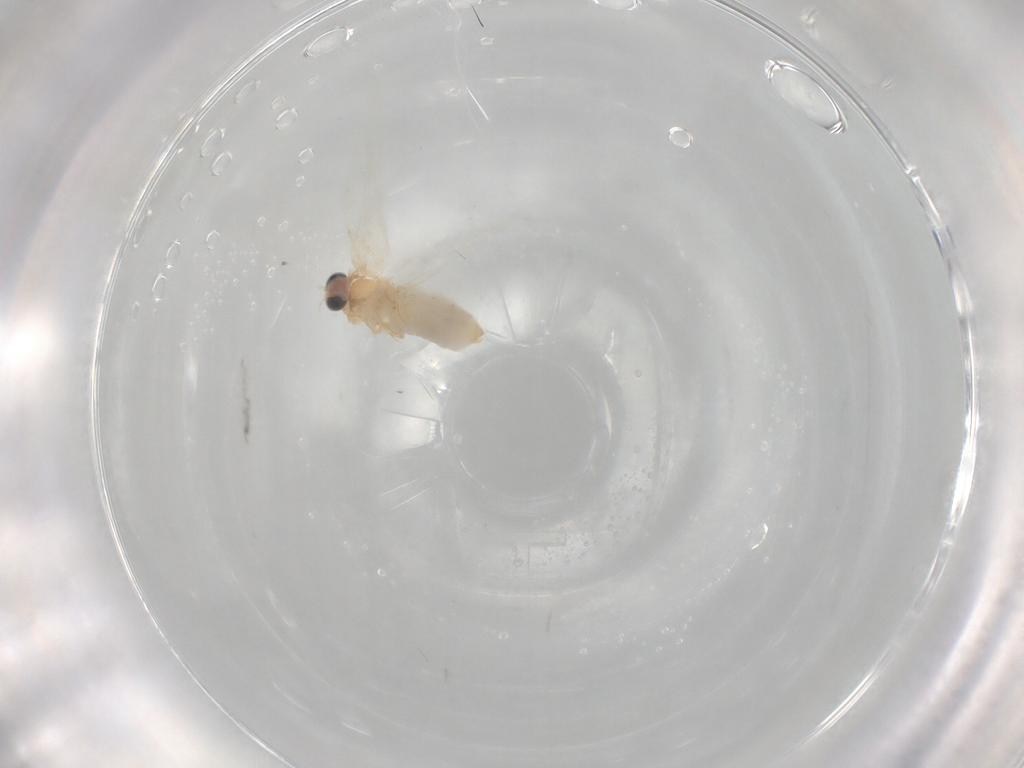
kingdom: Animalia
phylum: Arthropoda
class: Insecta
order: Lepidoptera
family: Nepticulidae
